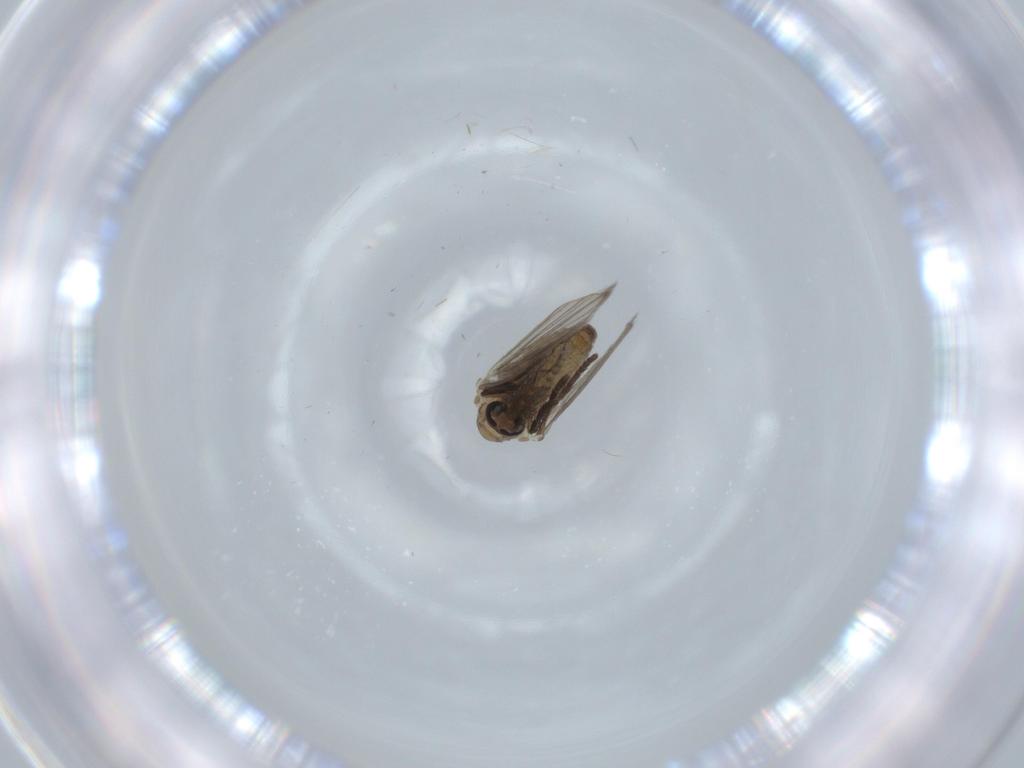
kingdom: Animalia
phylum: Arthropoda
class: Insecta
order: Diptera
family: Psychodidae
